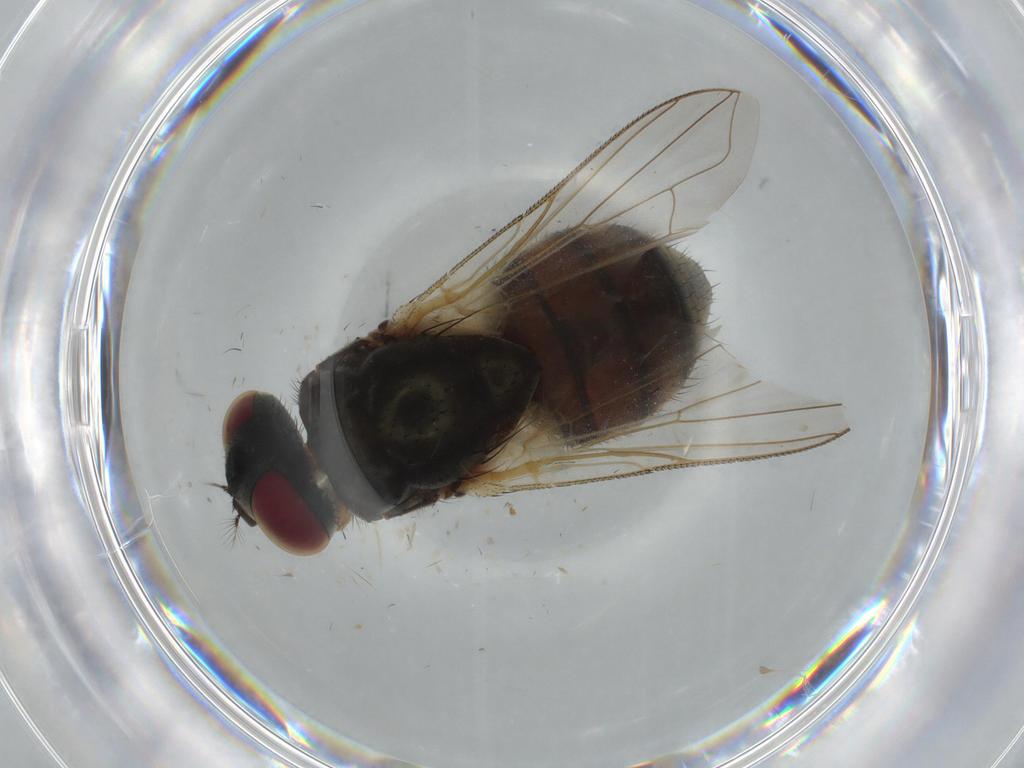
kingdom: Animalia
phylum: Arthropoda
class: Insecta
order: Diptera
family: Muscidae
